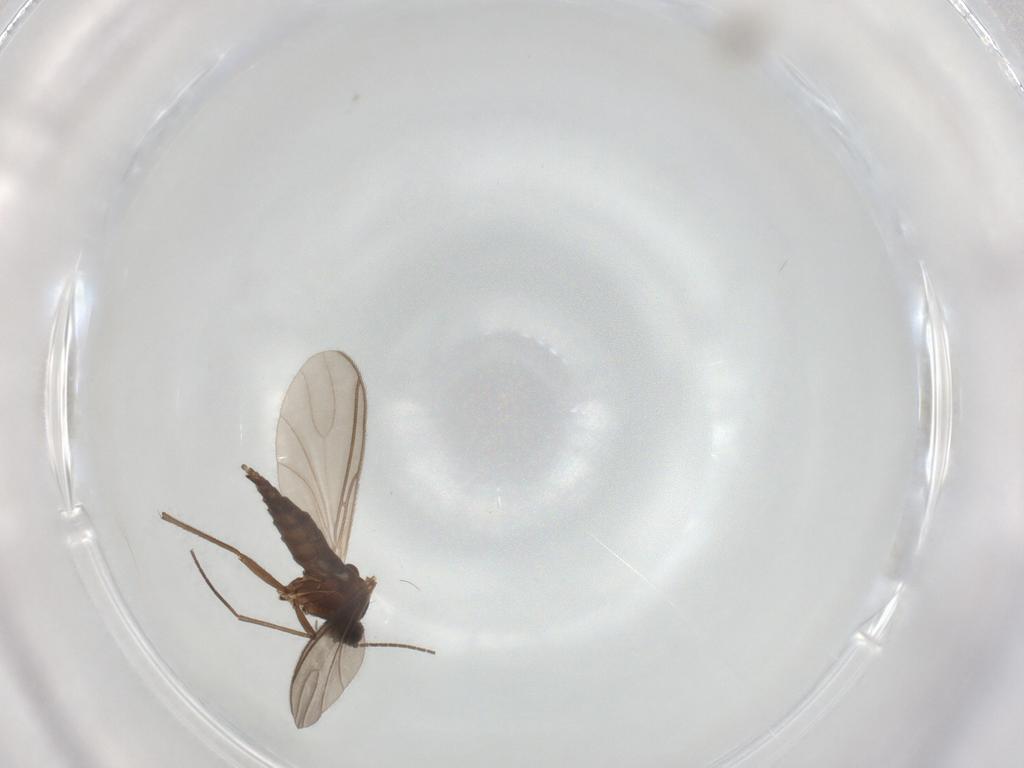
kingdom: Animalia
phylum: Arthropoda
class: Insecta
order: Diptera
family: Cecidomyiidae
